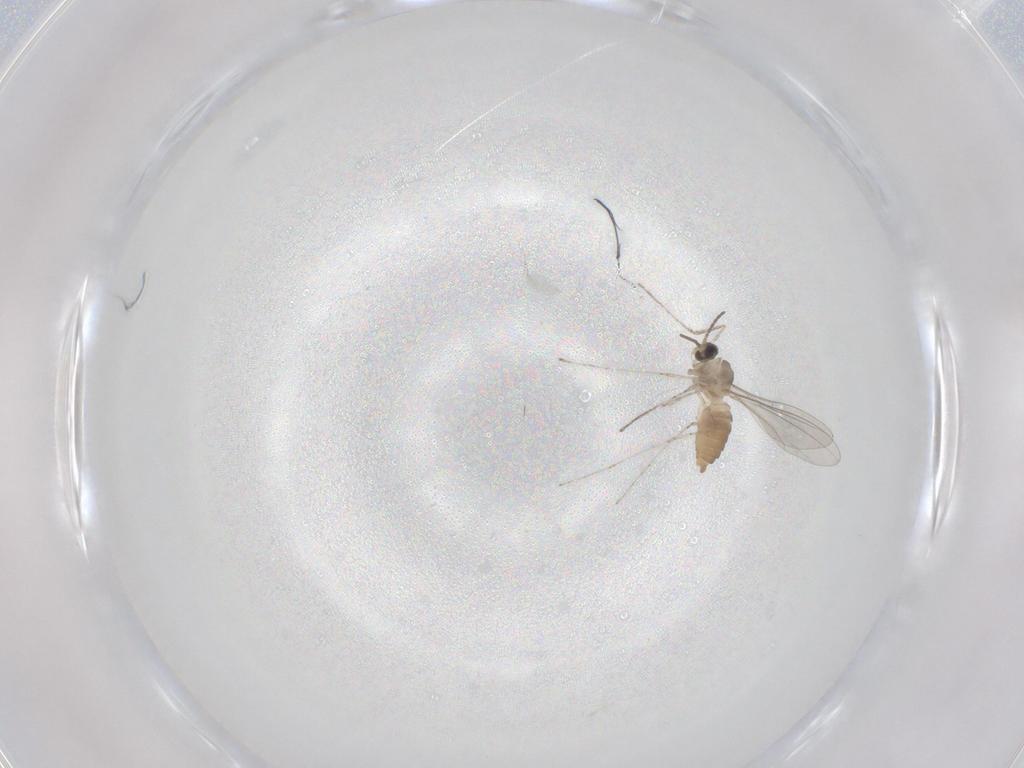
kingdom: Animalia
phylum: Arthropoda
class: Insecta
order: Diptera
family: Cecidomyiidae
